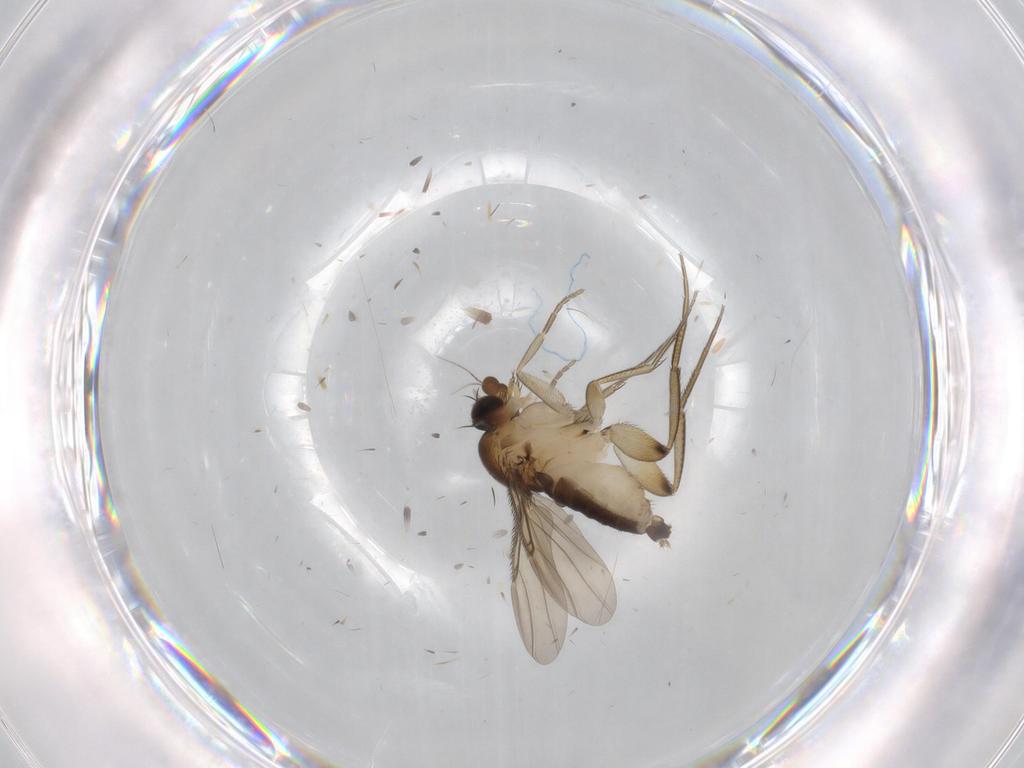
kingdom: Animalia
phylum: Arthropoda
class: Insecta
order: Diptera
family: Phoridae
